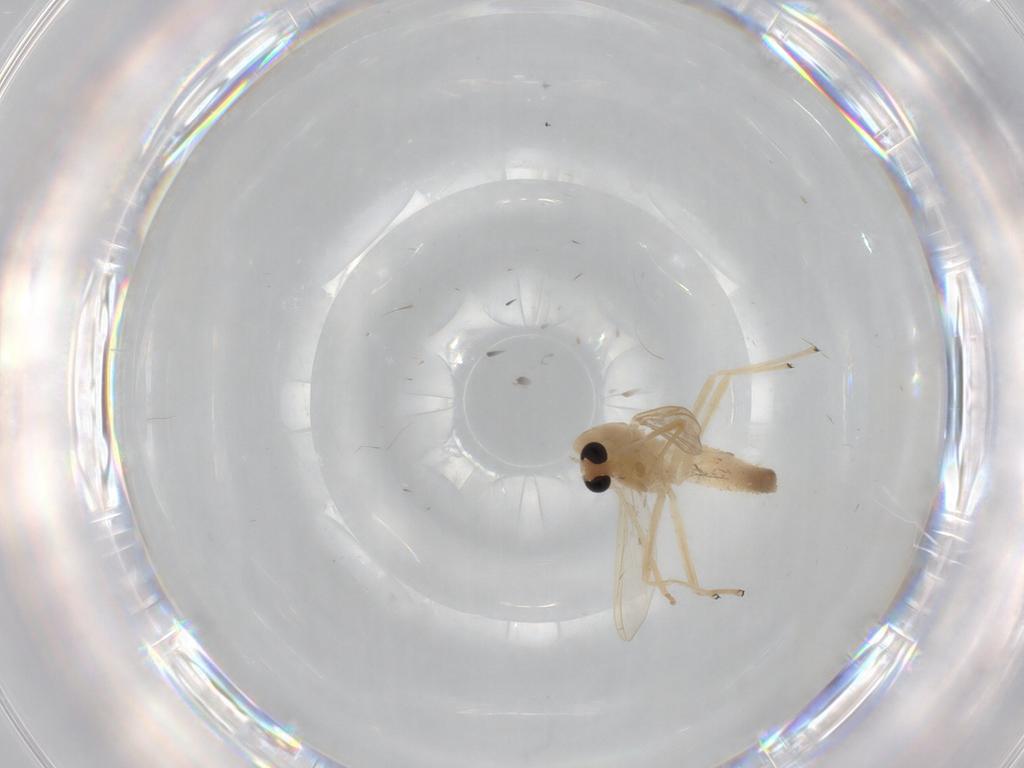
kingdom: Animalia
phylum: Arthropoda
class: Insecta
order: Diptera
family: Chironomidae
